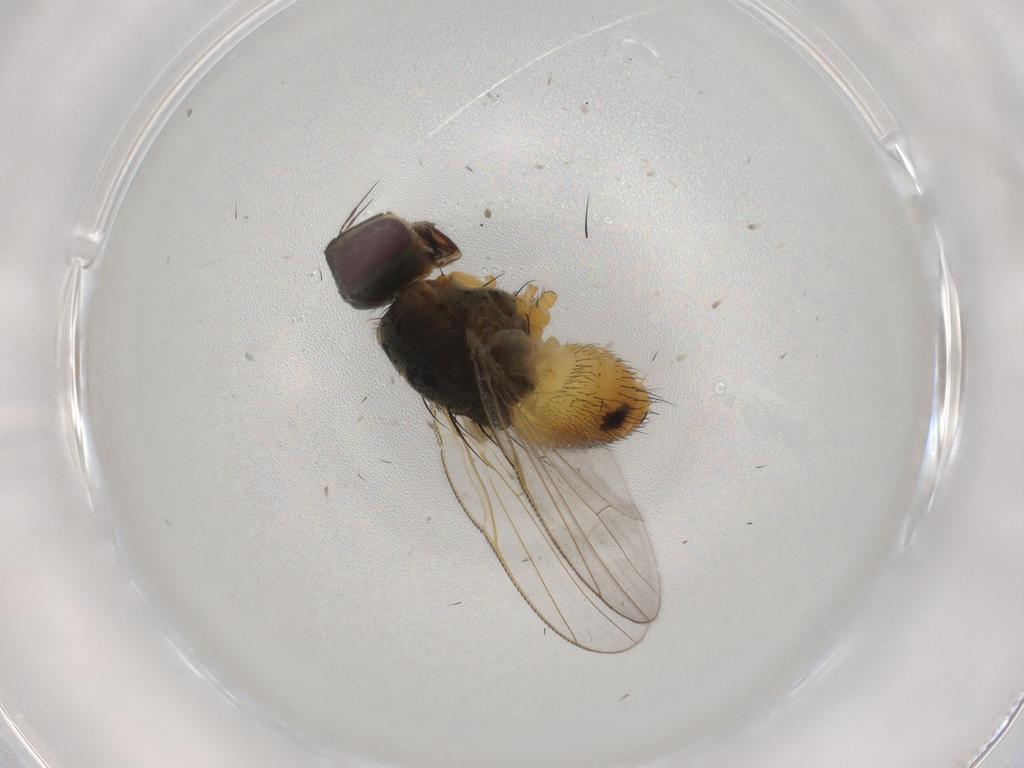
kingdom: Animalia
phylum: Arthropoda
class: Insecta
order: Diptera
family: Muscidae
